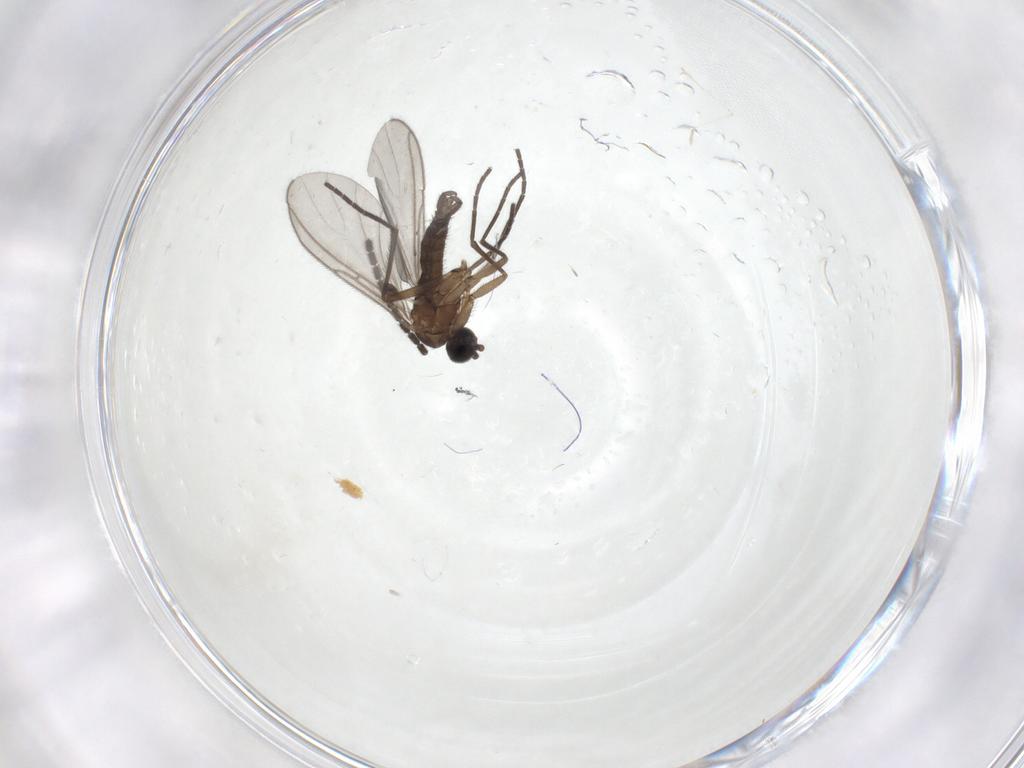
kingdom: Animalia
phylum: Arthropoda
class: Insecta
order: Diptera
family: Sciaridae
